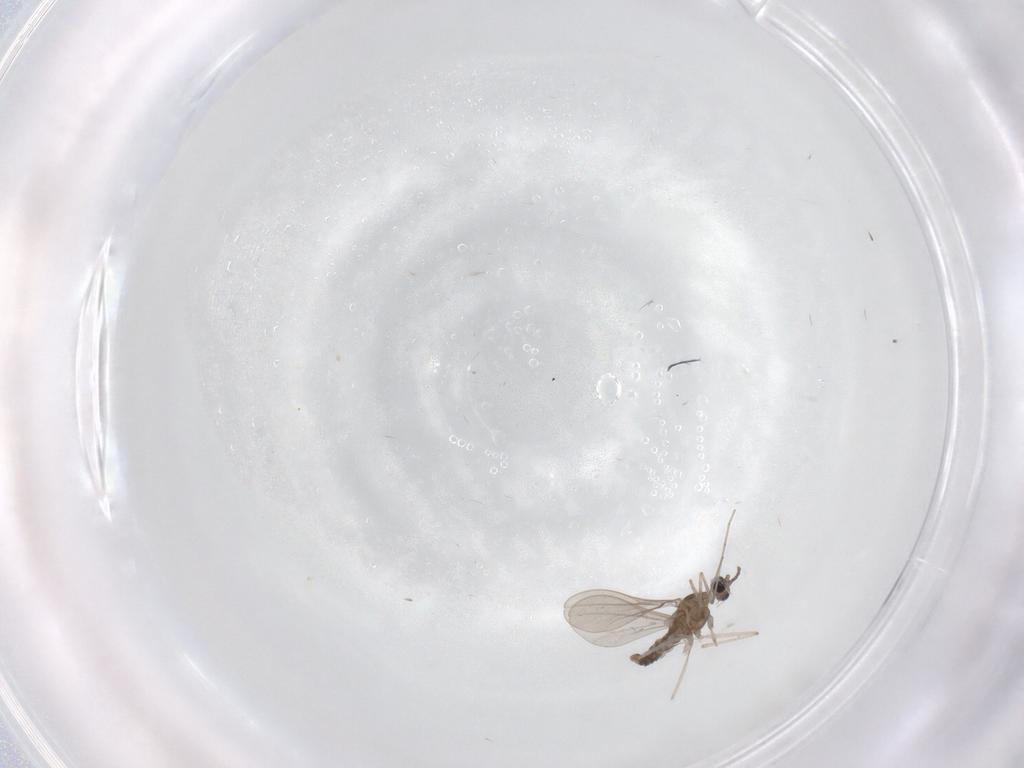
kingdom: Animalia
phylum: Arthropoda
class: Insecta
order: Diptera
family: Cecidomyiidae
